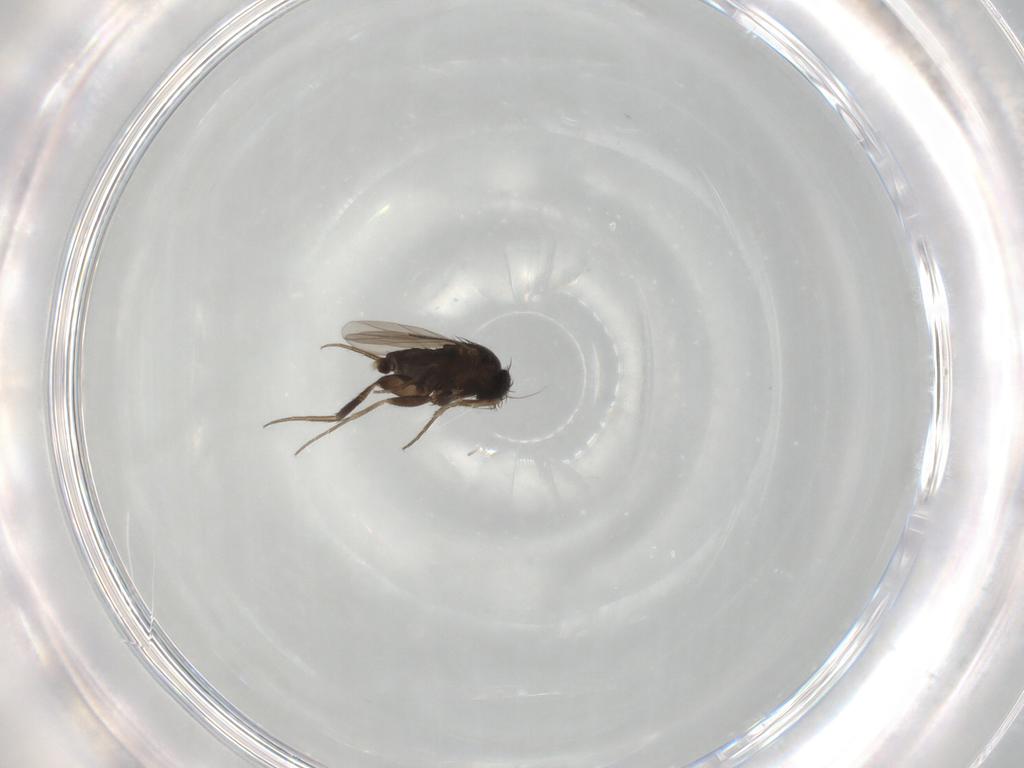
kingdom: Animalia
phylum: Arthropoda
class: Insecta
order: Diptera
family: Phoridae
